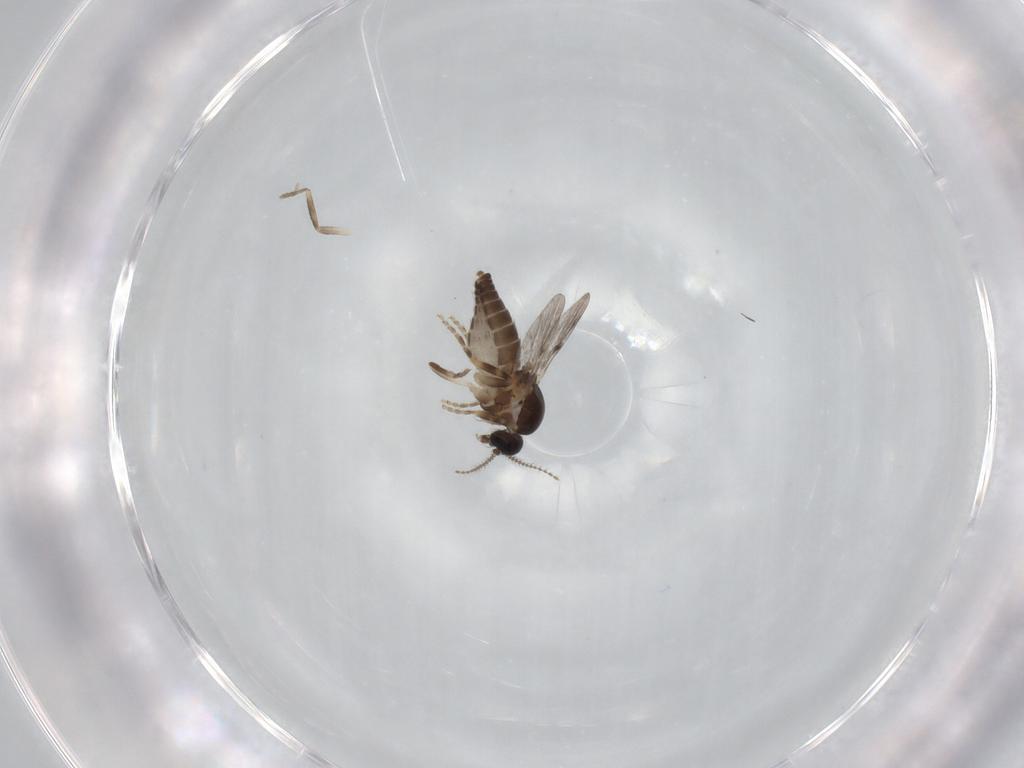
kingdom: Animalia
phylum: Arthropoda
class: Insecta
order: Diptera
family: Ceratopogonidae
